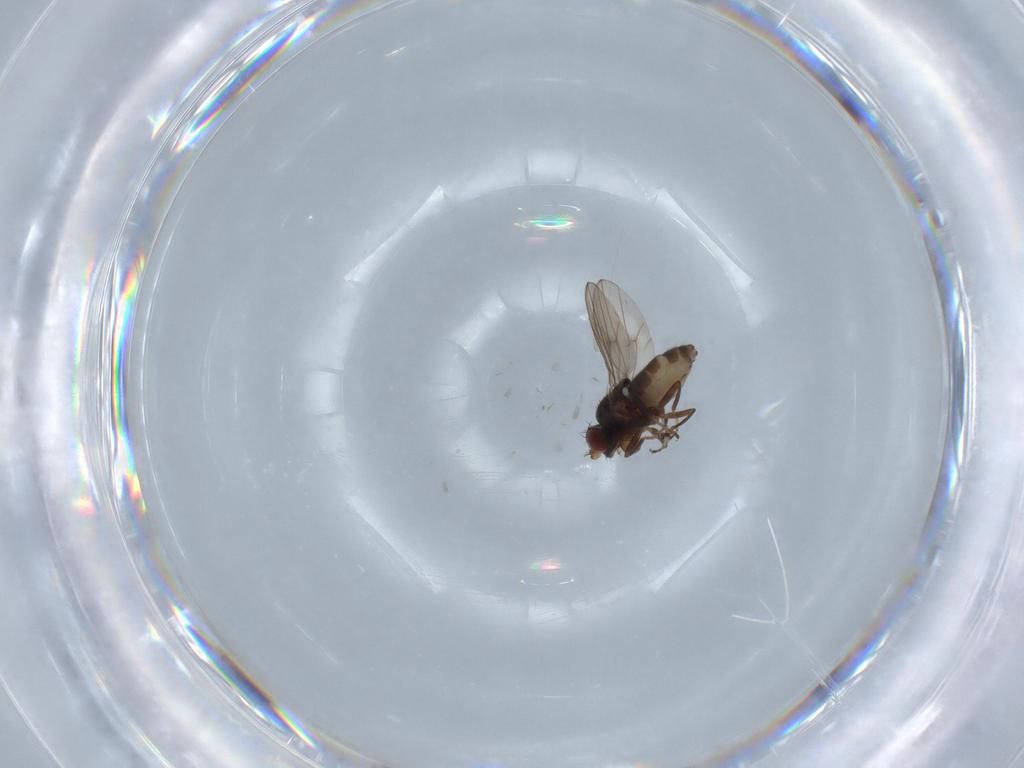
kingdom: Animalia
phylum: Arthropoda
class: Insecta
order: Diptera
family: Ephydridae
